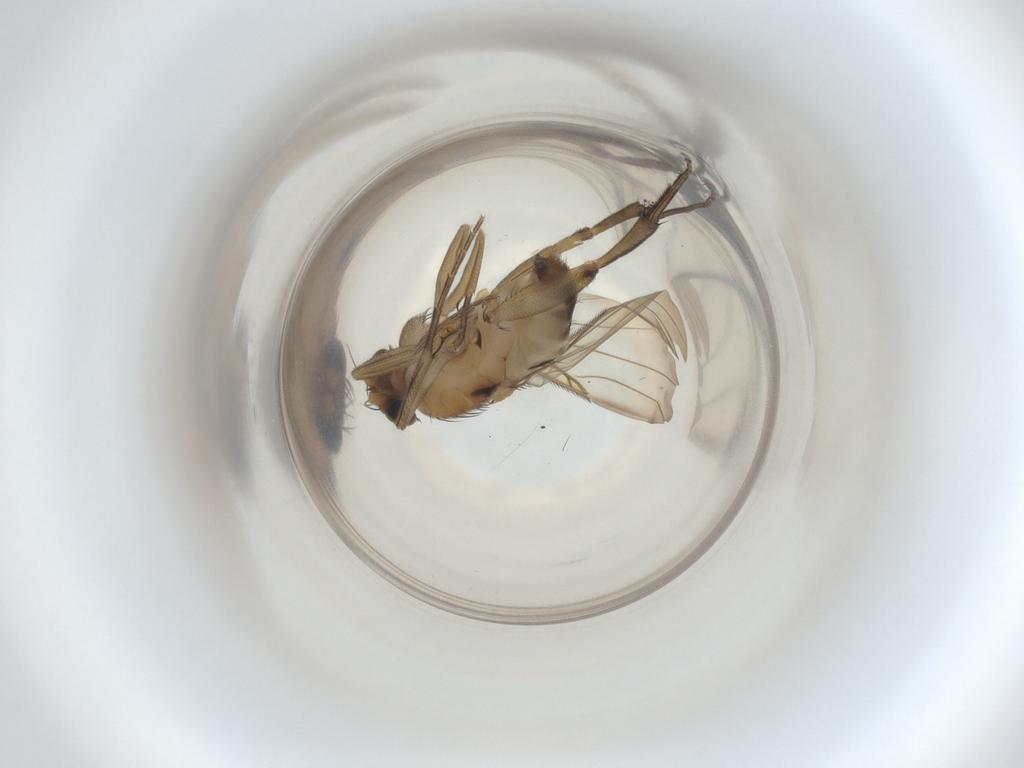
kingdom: Animalia
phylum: Arthropoda
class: Insecta
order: Diptera
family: Phoridae
